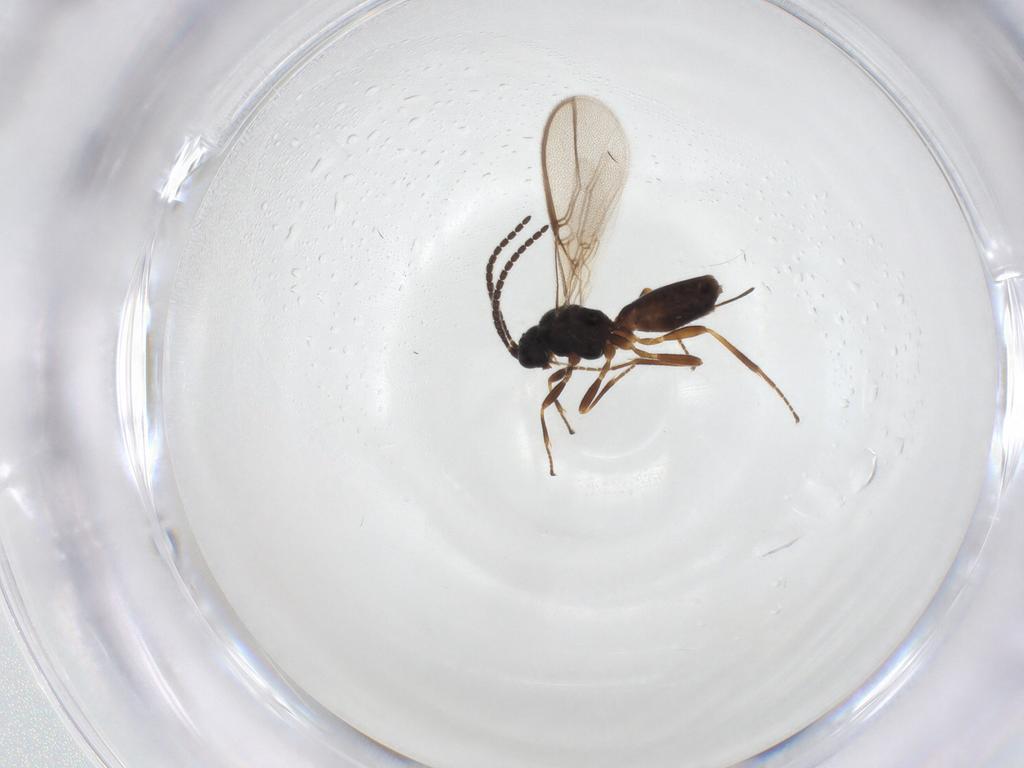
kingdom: Animalia
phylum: Arthropoda
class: Insecta
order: Hymenoptera
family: Braconidae
